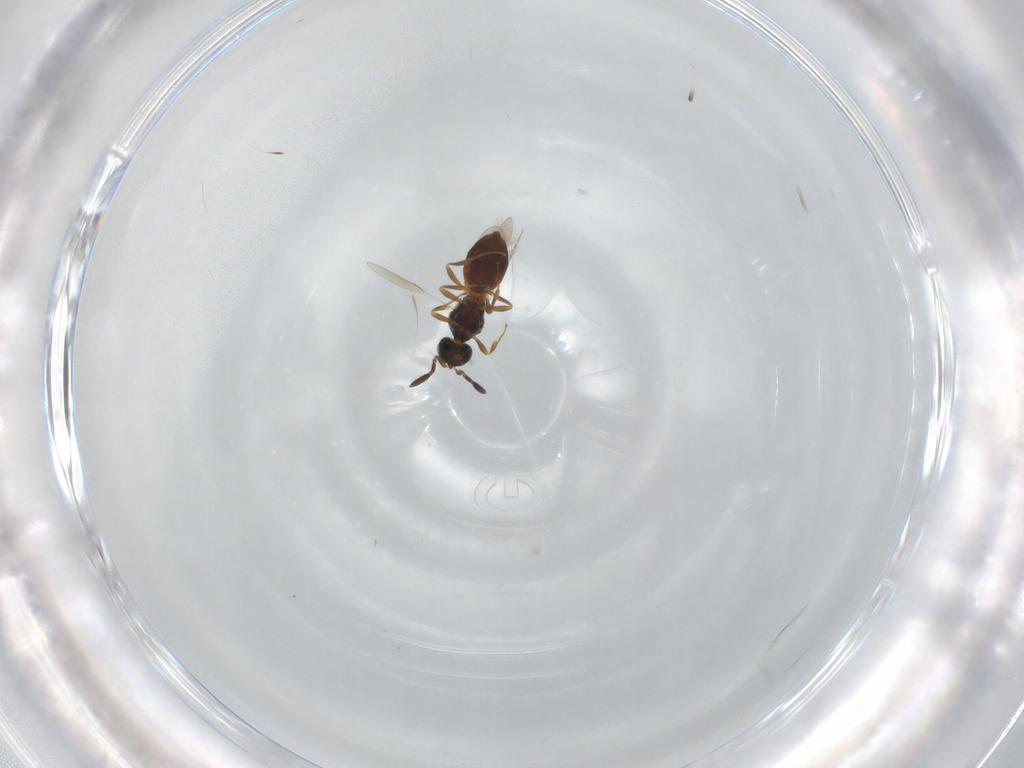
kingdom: Animalia
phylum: Arthropoda
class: Insecta
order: Hymenoptera
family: Scelionidae
